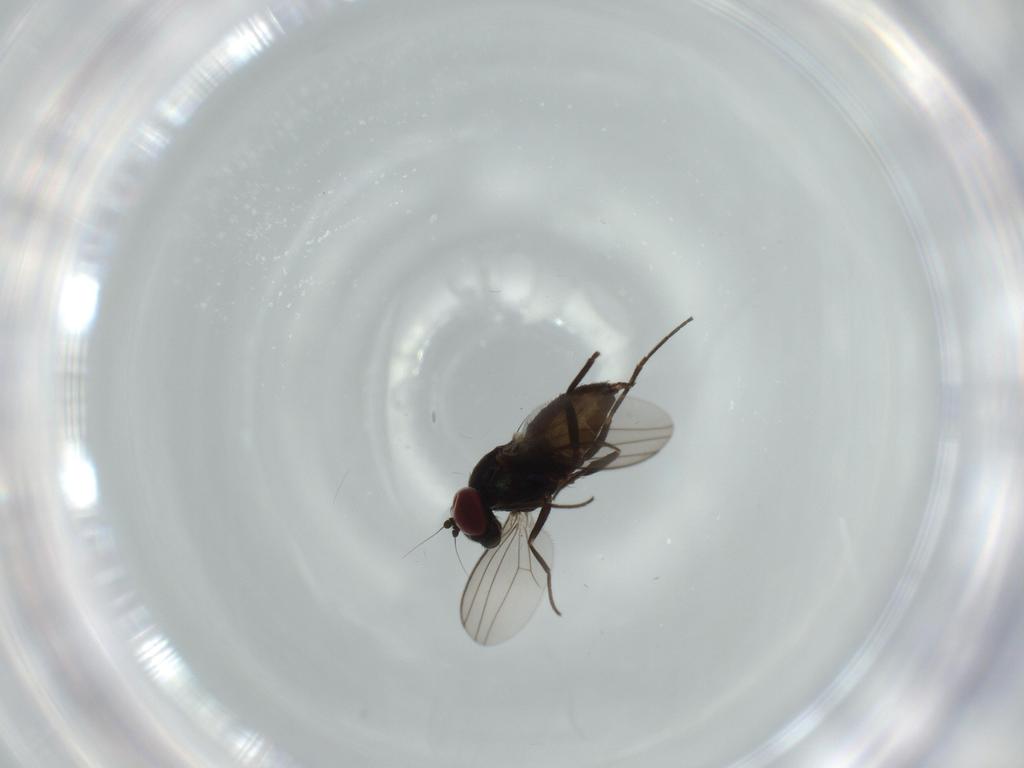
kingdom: Animalia
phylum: Arthropoda
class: Insecta
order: Diptera
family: Dolichopodidae
